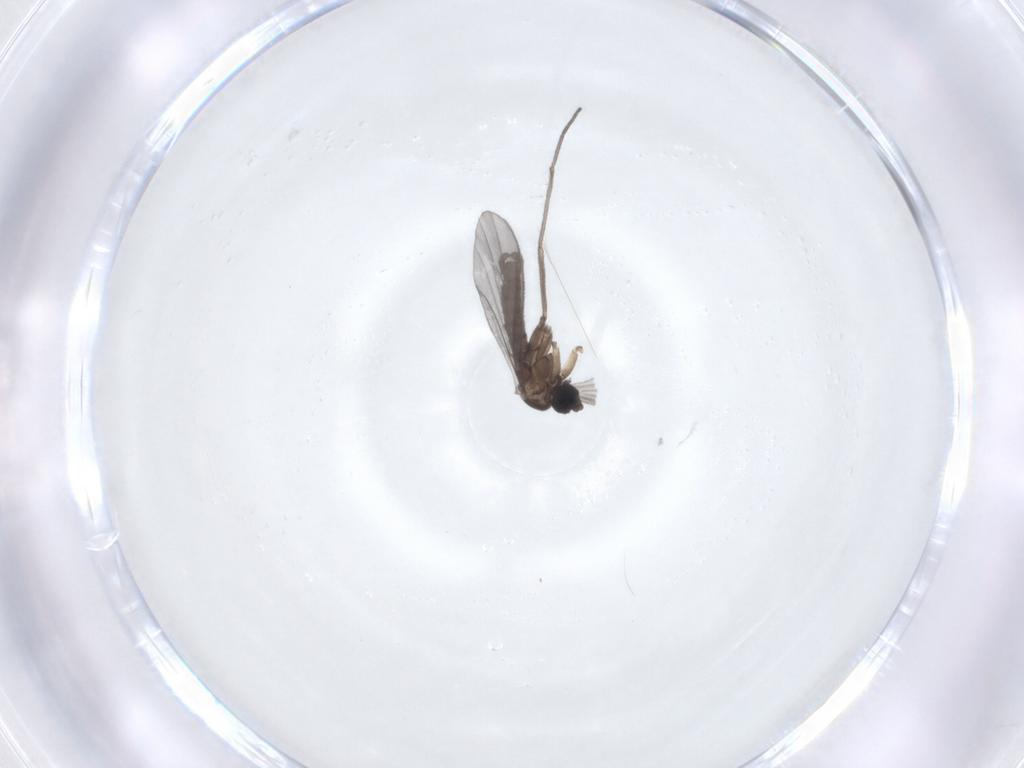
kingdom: Animalia
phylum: Arthropoda
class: Insecta
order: Diptera
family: Sciaridae
